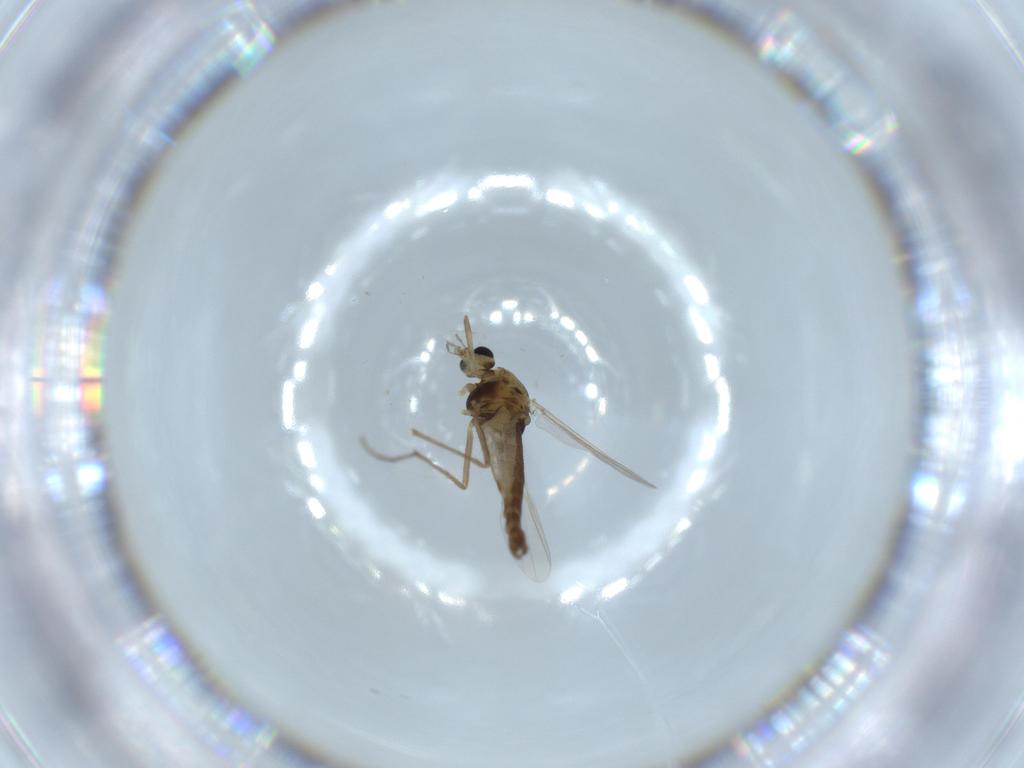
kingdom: Animalia
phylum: Arthropoda
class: Insecta
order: Diptera
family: Chironomidae
